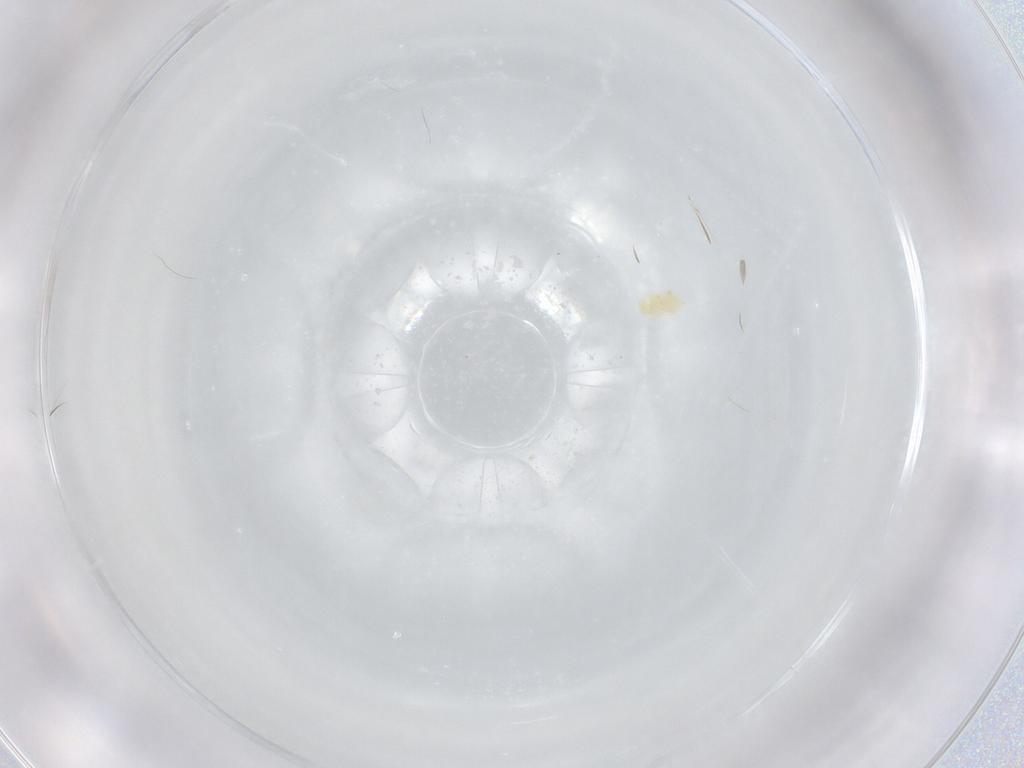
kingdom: Animalia
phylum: Arthropoda
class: Arachnida
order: Trombidiformes
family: Eupodidae
